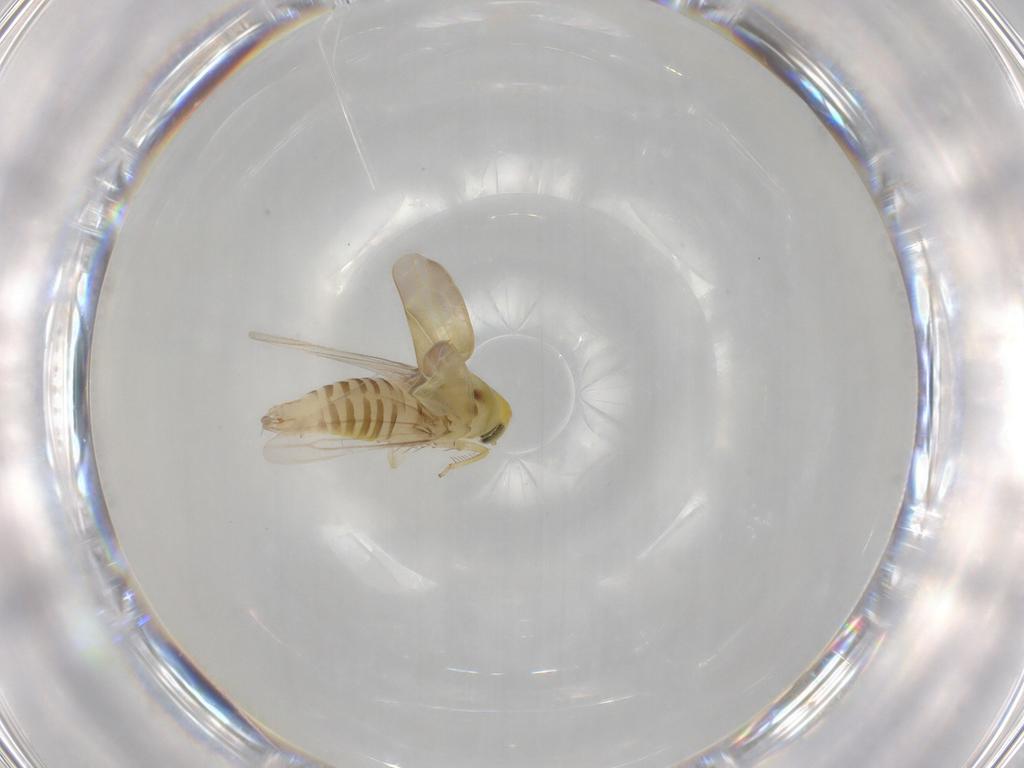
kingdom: Animalia
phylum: Arthropoda
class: Insecta
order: Hemiptera
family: Cicadellidae
